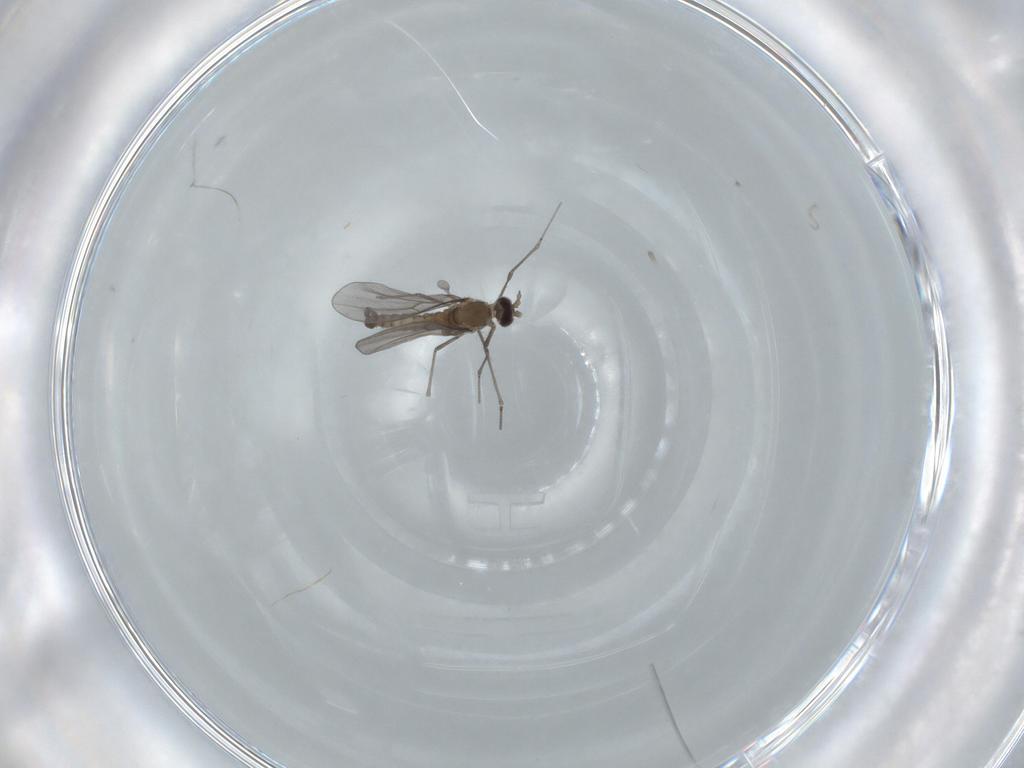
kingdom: Animalia
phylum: Arthropoda
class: Insecta
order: Diptera
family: Cecidomyiidae
